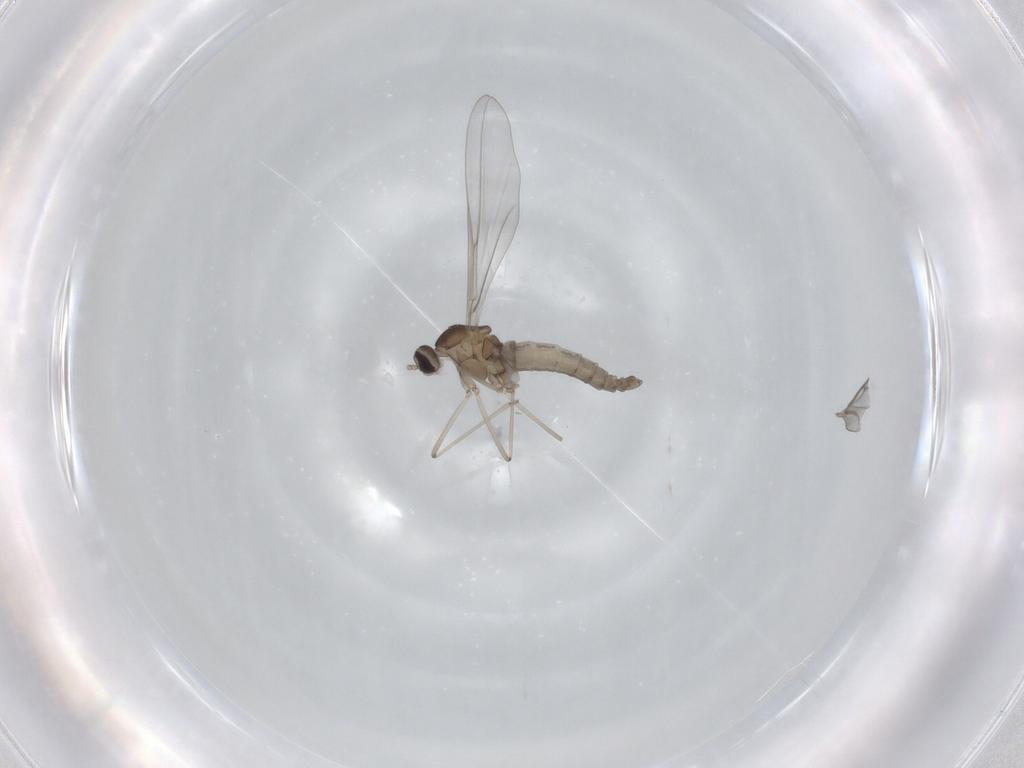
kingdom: Animalia
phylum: Arthropoda
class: Insecta
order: Diptera
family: Cecidomyiidae
